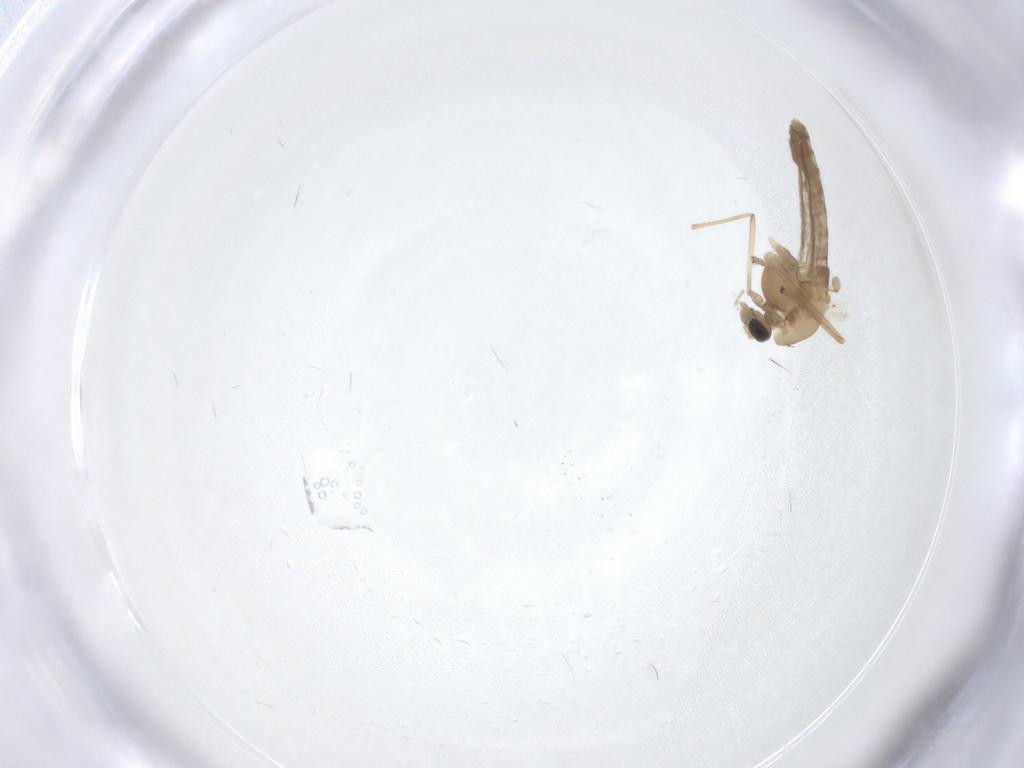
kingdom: Animalia
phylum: Arthropoda
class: Insecta
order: Diptera
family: Chironomidae
